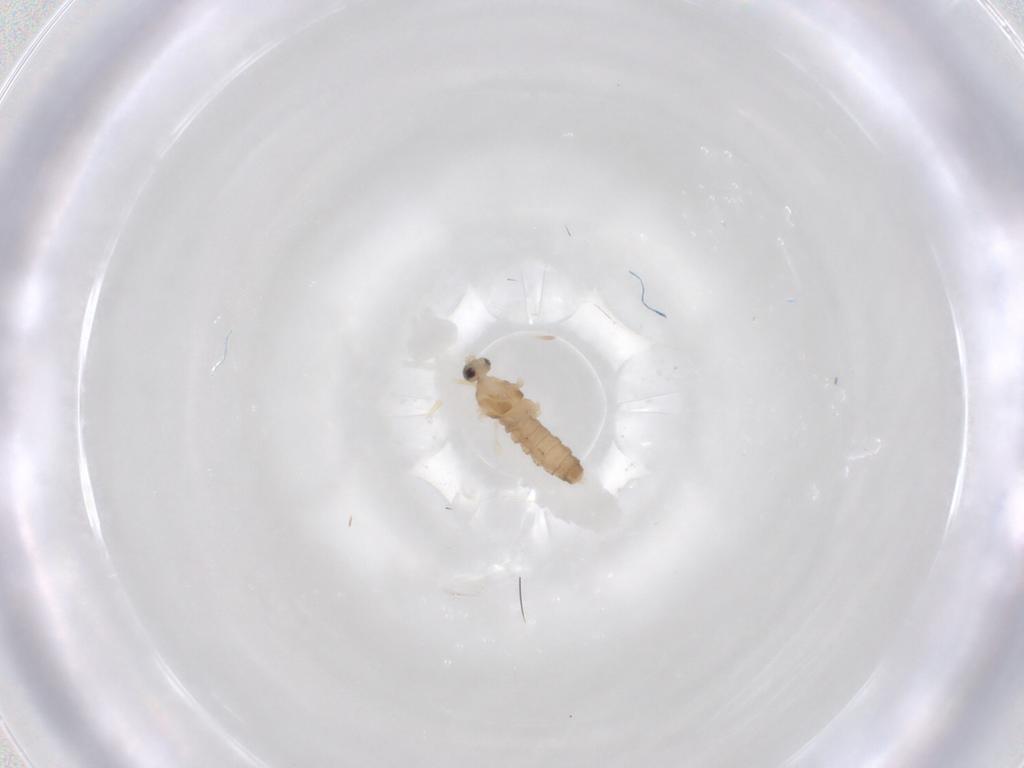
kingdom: Animalia
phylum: Arthropoda
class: Insecta
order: Diptera
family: Cecidomyiidae
